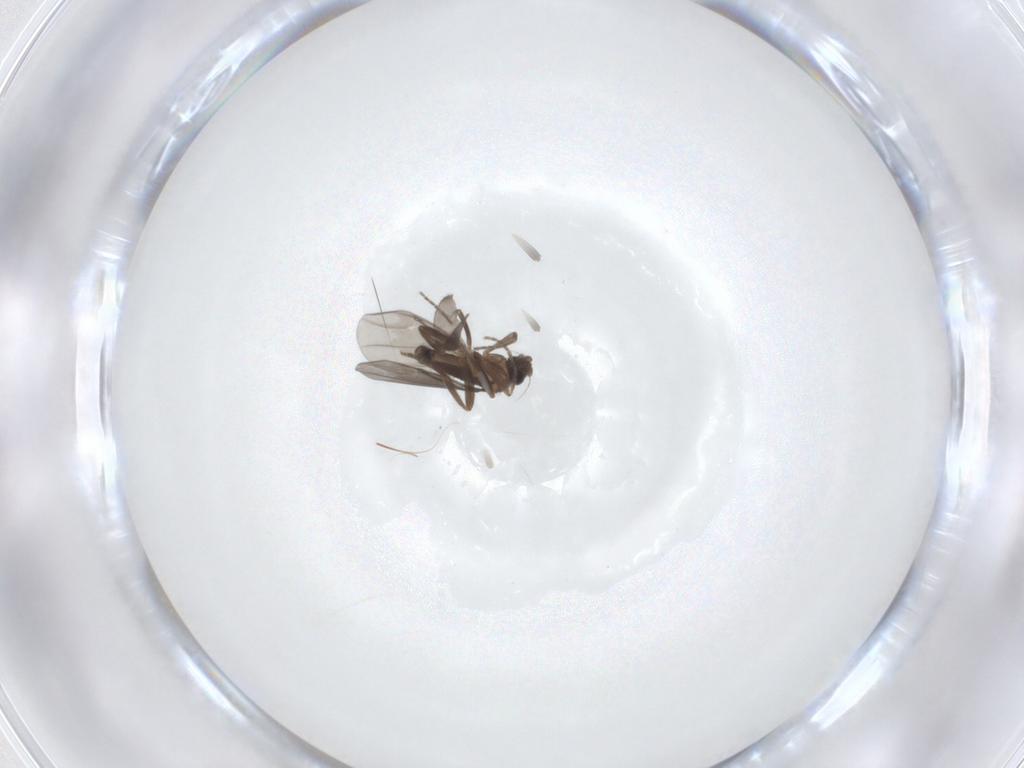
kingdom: Animalia
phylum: Arthropoda
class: Insecta
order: Diptera
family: Phoridae
